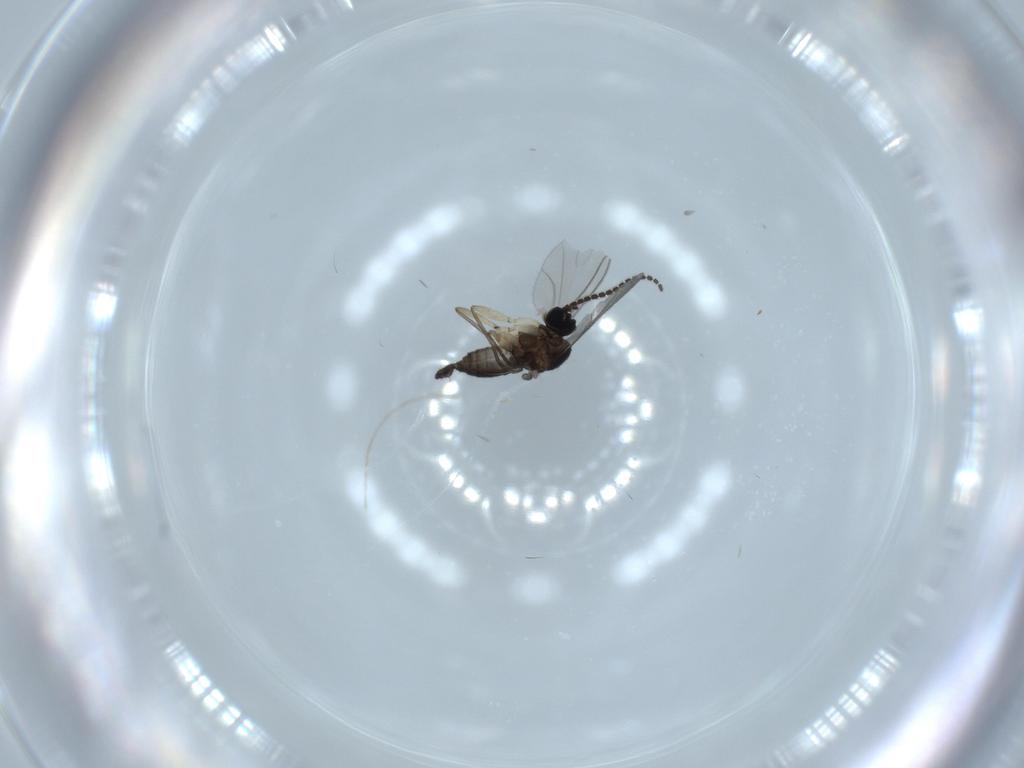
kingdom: Animalia
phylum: Arthropoda
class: Insecta
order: Diptera
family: Sciaridae
